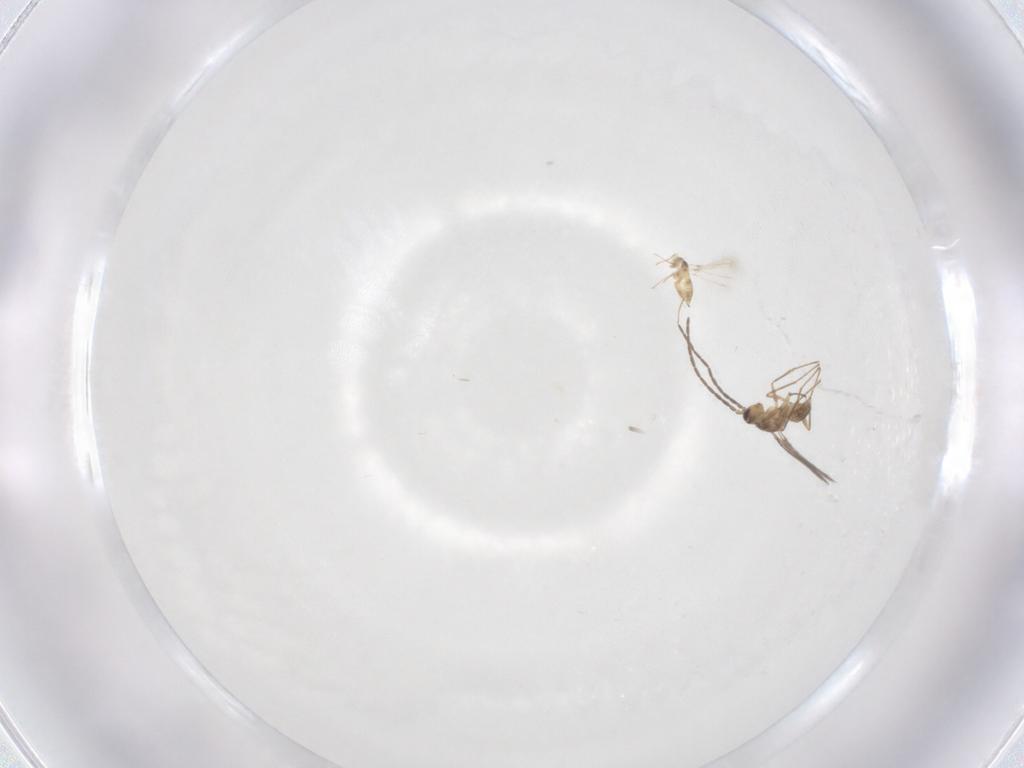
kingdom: Animalia
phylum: Arthropoda
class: Insecta
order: Hymenoptera
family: Mymaridae
